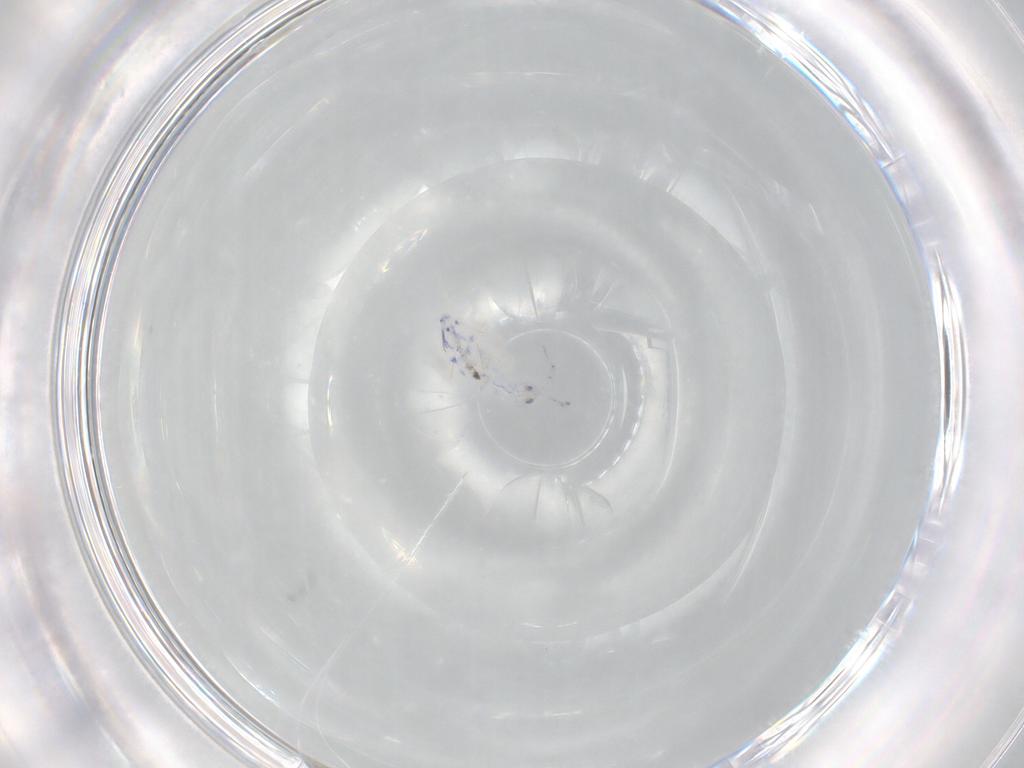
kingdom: Animalia
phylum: Arthropoda
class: Collembola
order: Entomobryomorpha
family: Entomobryidae
